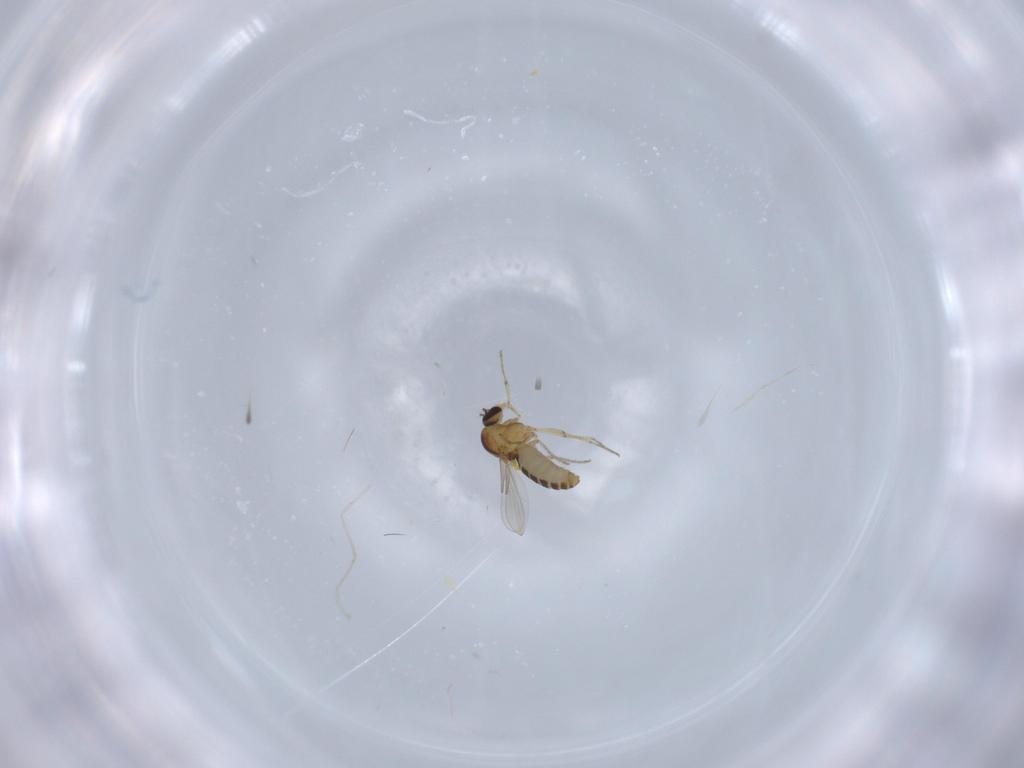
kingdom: Animalia
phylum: Arthropoda
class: Insecta
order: Diptera
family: Ceratopogonidae
